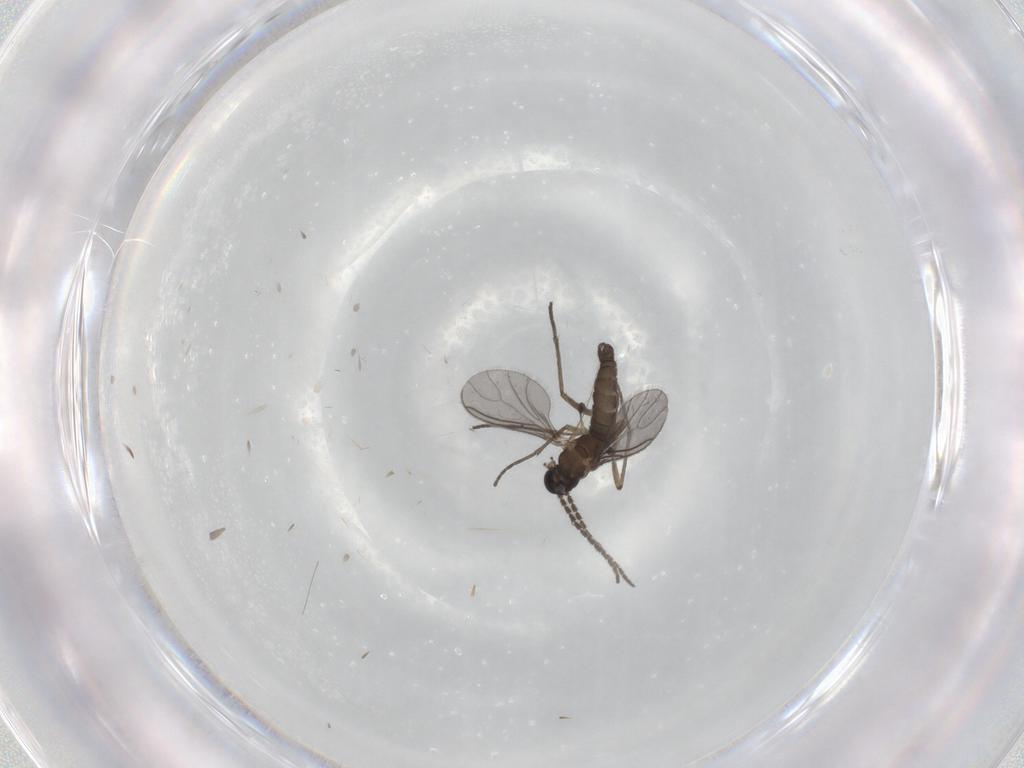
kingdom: Animalia
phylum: Arthropoda
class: Insecta
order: Diptera
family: Sciaridae
